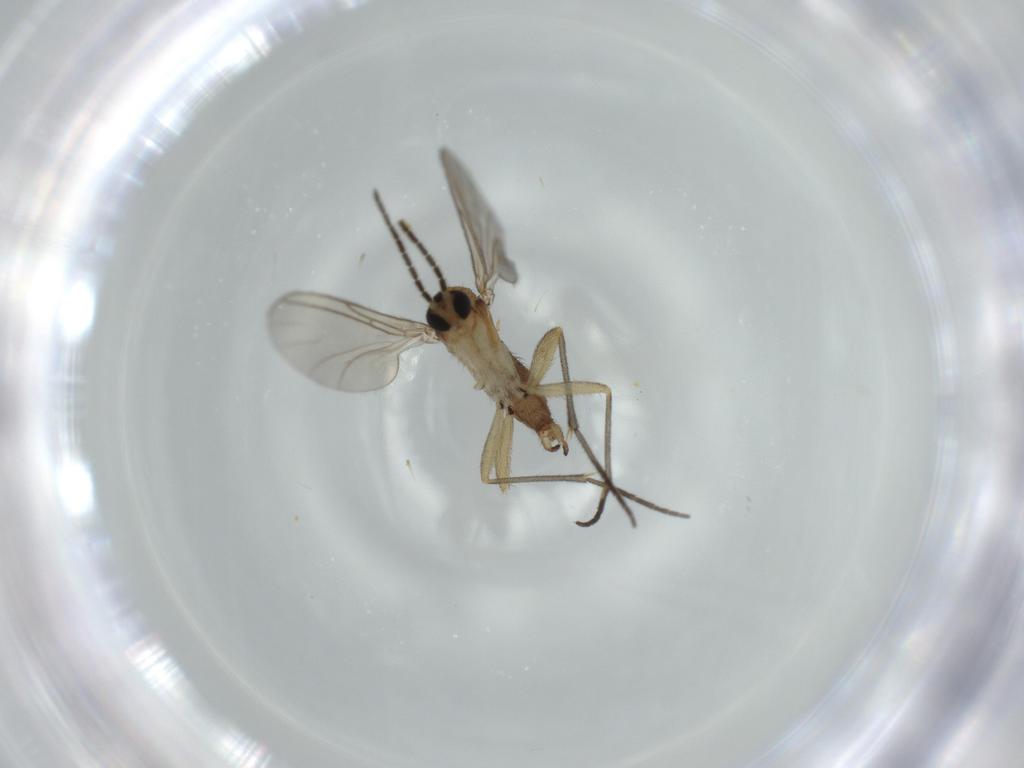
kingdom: Animalia
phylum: Arthropoda
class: Insecta
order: Diptera
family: Sciaridae
